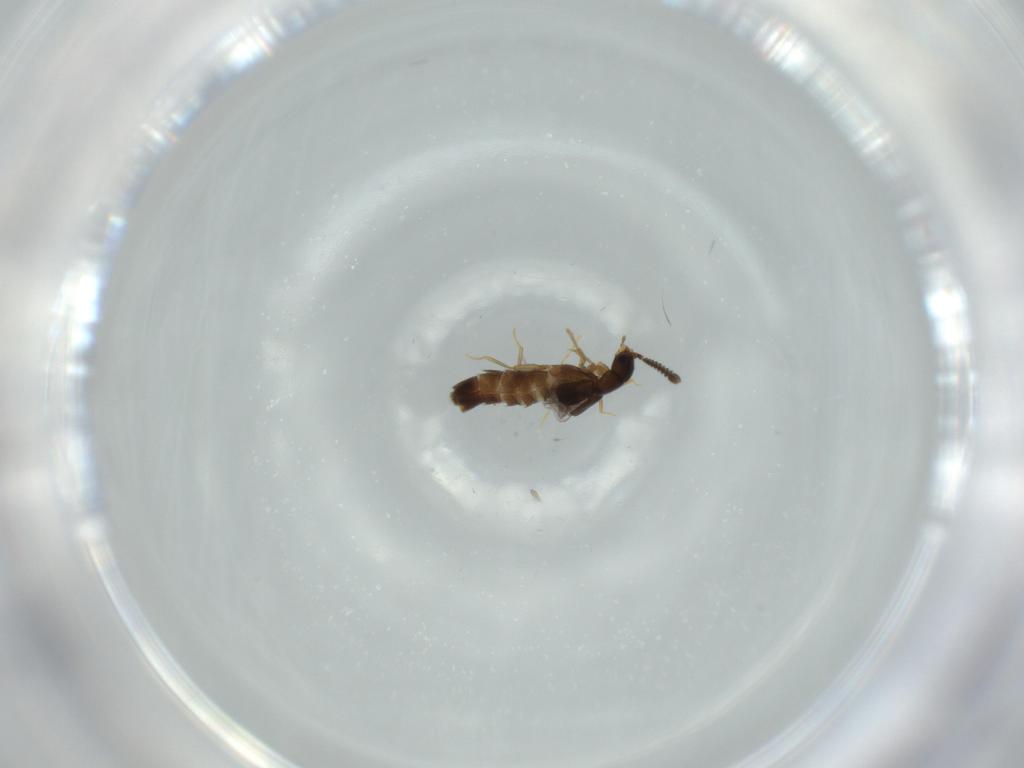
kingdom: Animalia
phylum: Arthropoda
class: Insecta
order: Coleoptera
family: Staphylinidae
